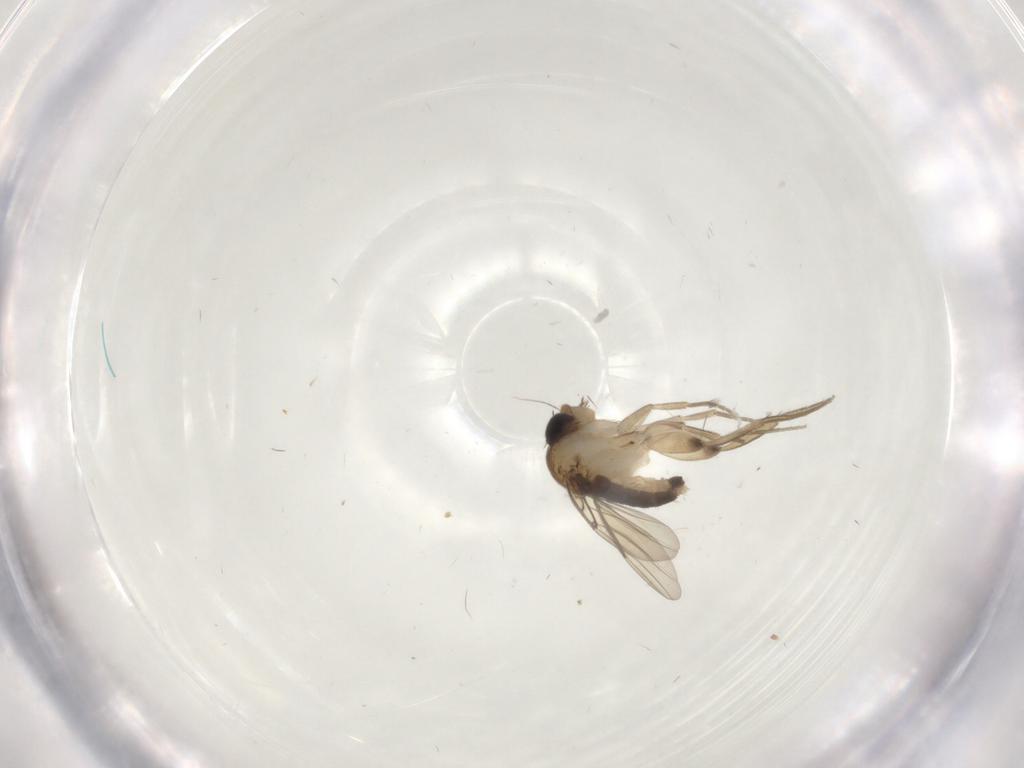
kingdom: Animalia
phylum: Arthropoda
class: Insecta
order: Diptera
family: Phoridae
